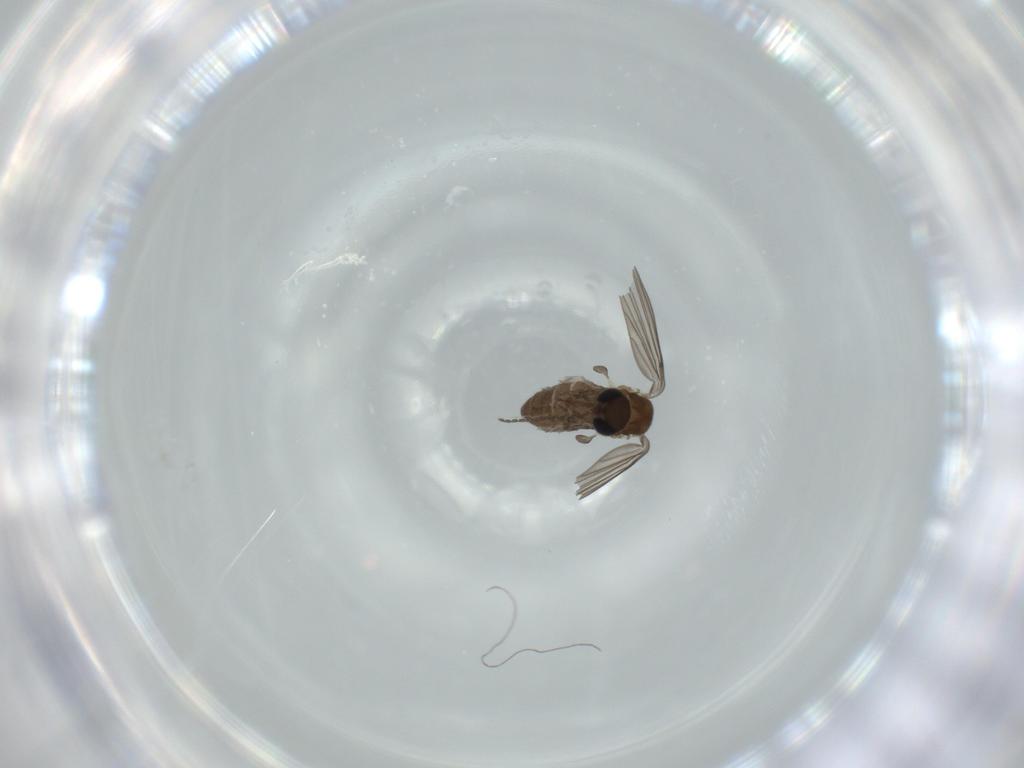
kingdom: Animalia
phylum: Arthropoda
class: Insecta
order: Diptera
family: Psychodidae
